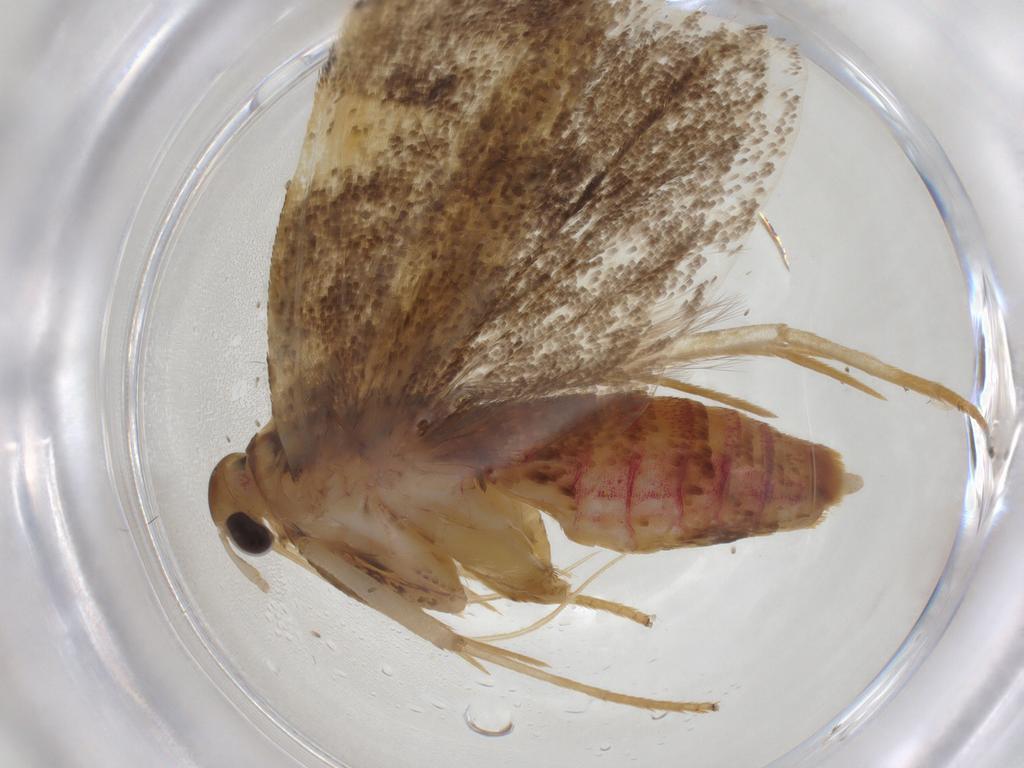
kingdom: Animalia
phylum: Arthropoda
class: Insecta
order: Lepidoptera
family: Lecithoceridae
